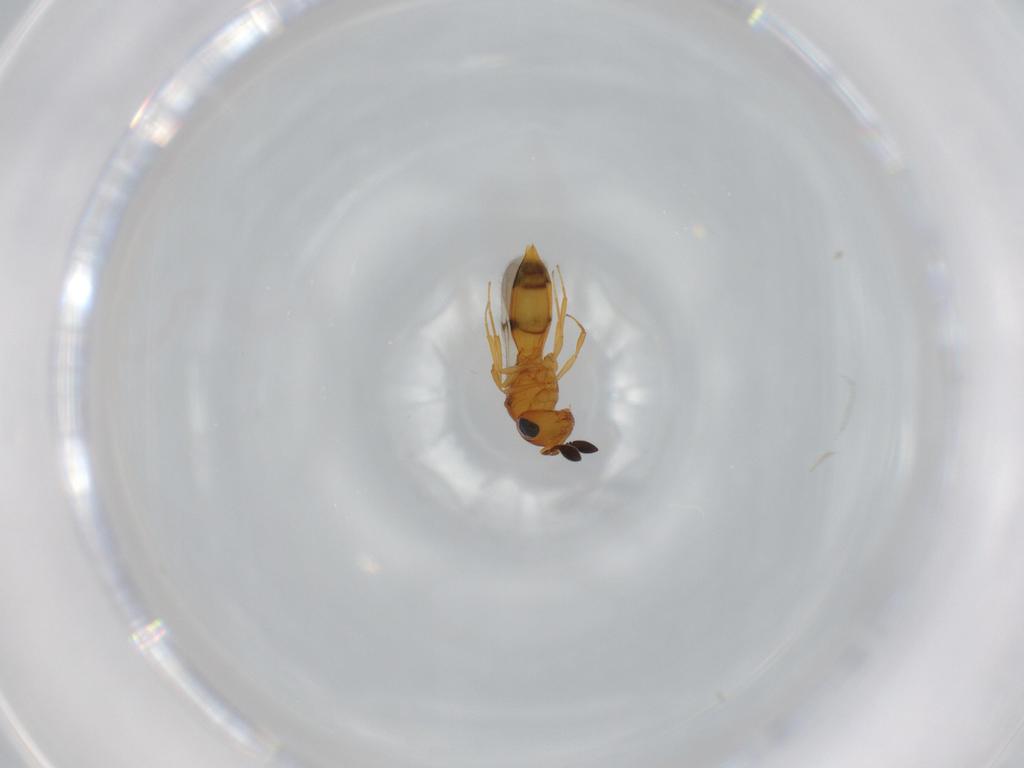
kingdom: Animalia
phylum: Arthropoda
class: Insecta
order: Hymenoptera
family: Scelionidae
